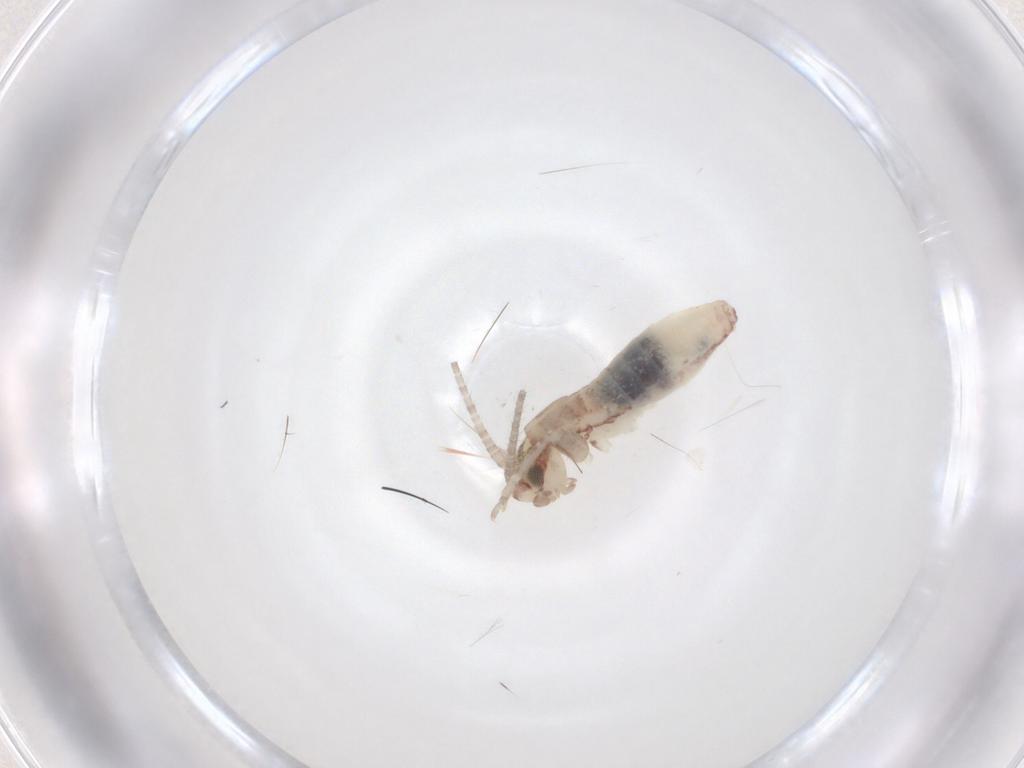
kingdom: Animalia
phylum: Arthropoda
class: Insecta
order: Orthoptera
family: Mogoplistidae
